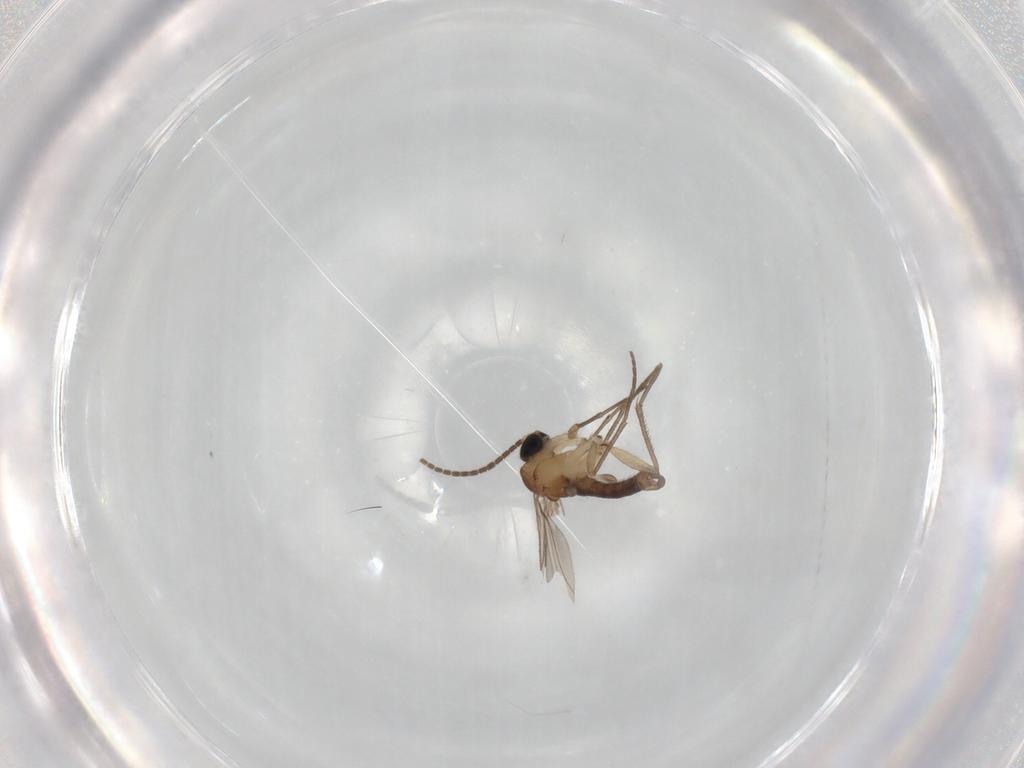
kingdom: Animalia
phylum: Arthropoda
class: Insecta
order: Diptera
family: Sciaridae
